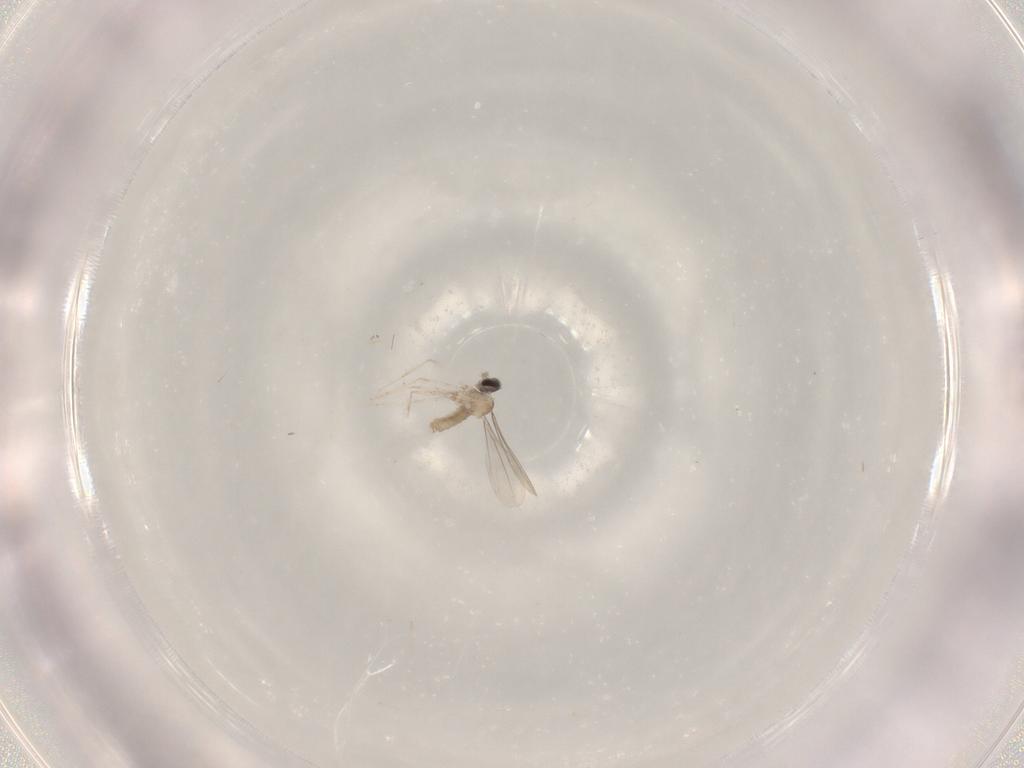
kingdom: Animalia
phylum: Arthropoda
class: Insecta
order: Diptera
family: Cecidomyiidae
